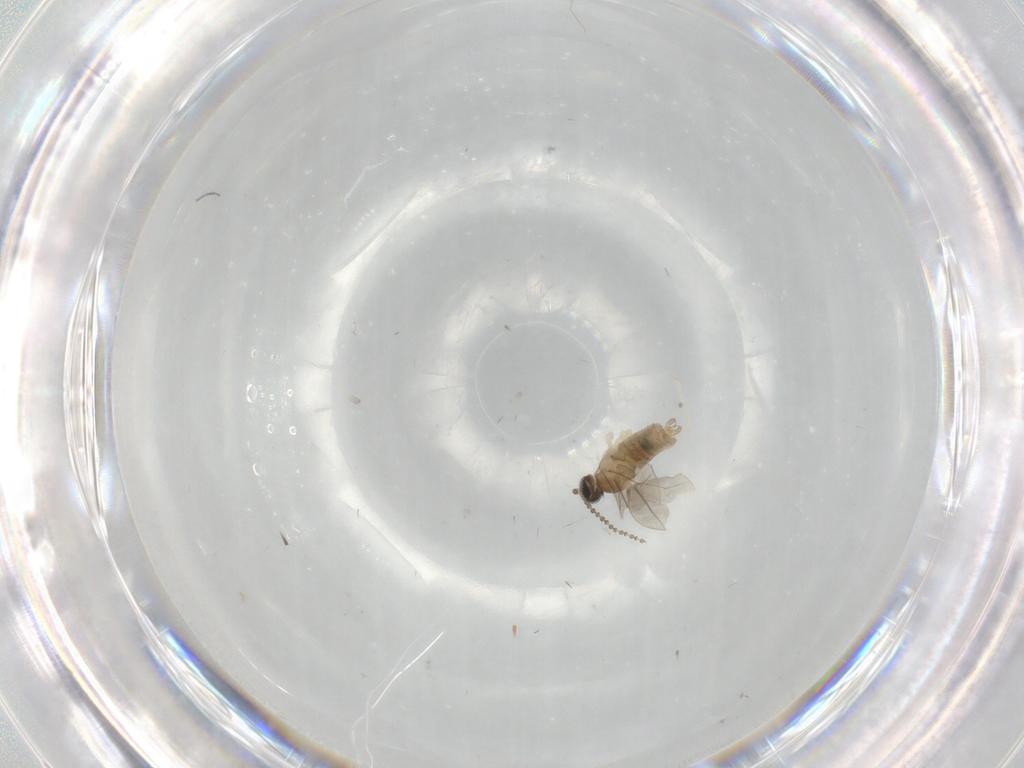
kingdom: Animalia
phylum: Arthropoda
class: Insecta
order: Diptera
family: Cecidomyiidae
